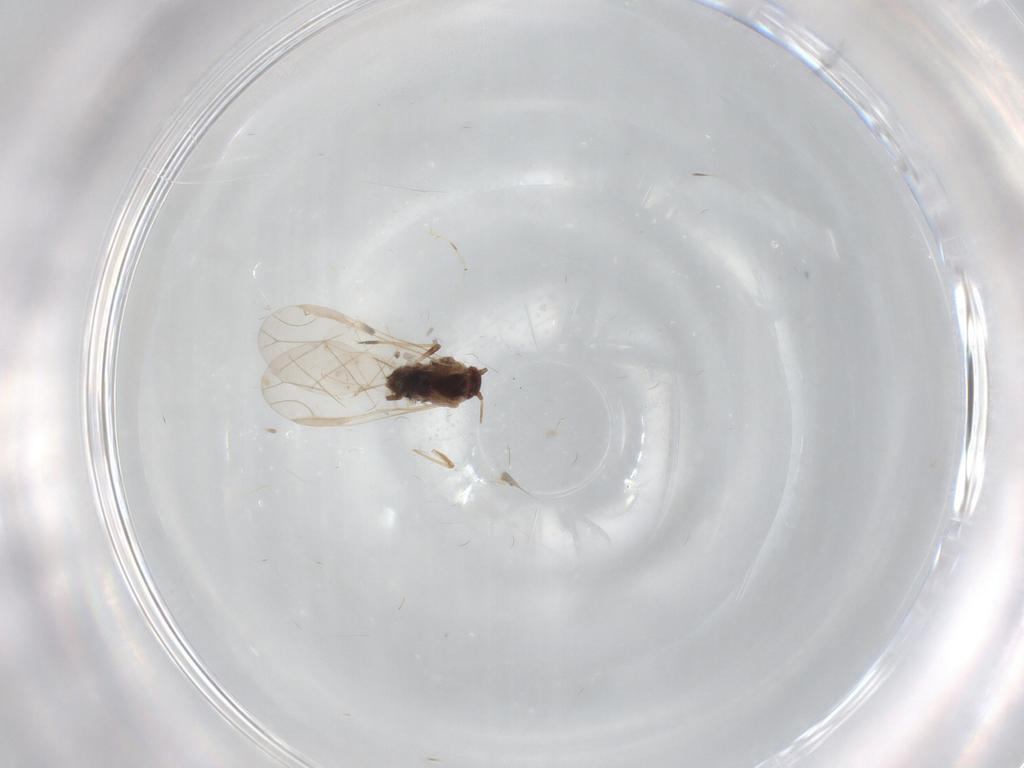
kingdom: Animalia
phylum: Arthropoda
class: Insecta
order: Hemiptera
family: Aphididae
